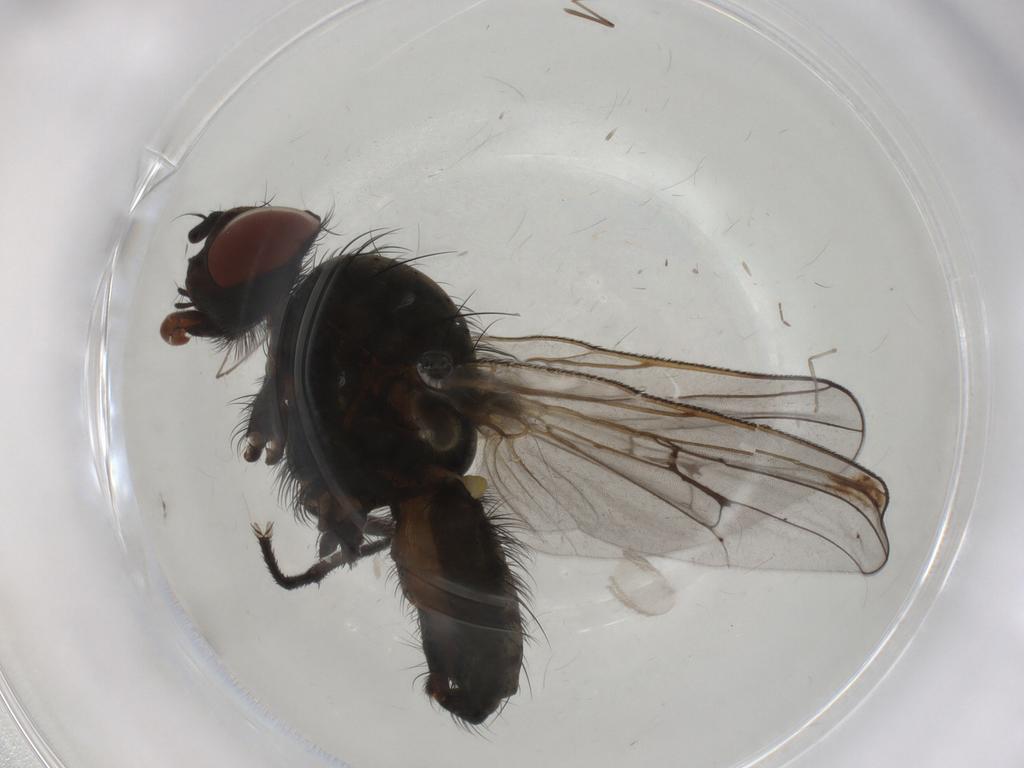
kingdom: Animalia
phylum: Arthropoda
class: Insecta
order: Diptera
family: Anthomyiidae
